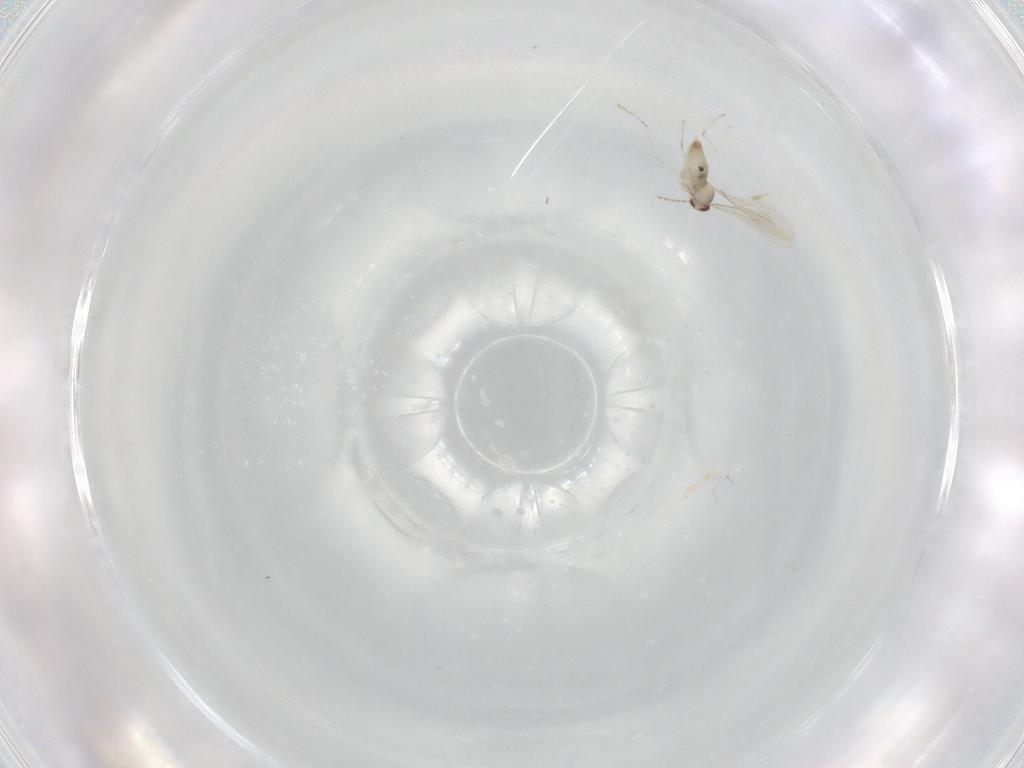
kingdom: Animalia
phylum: Arthropoda
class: Insecta
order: Diptera
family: Cecidomyiidae
